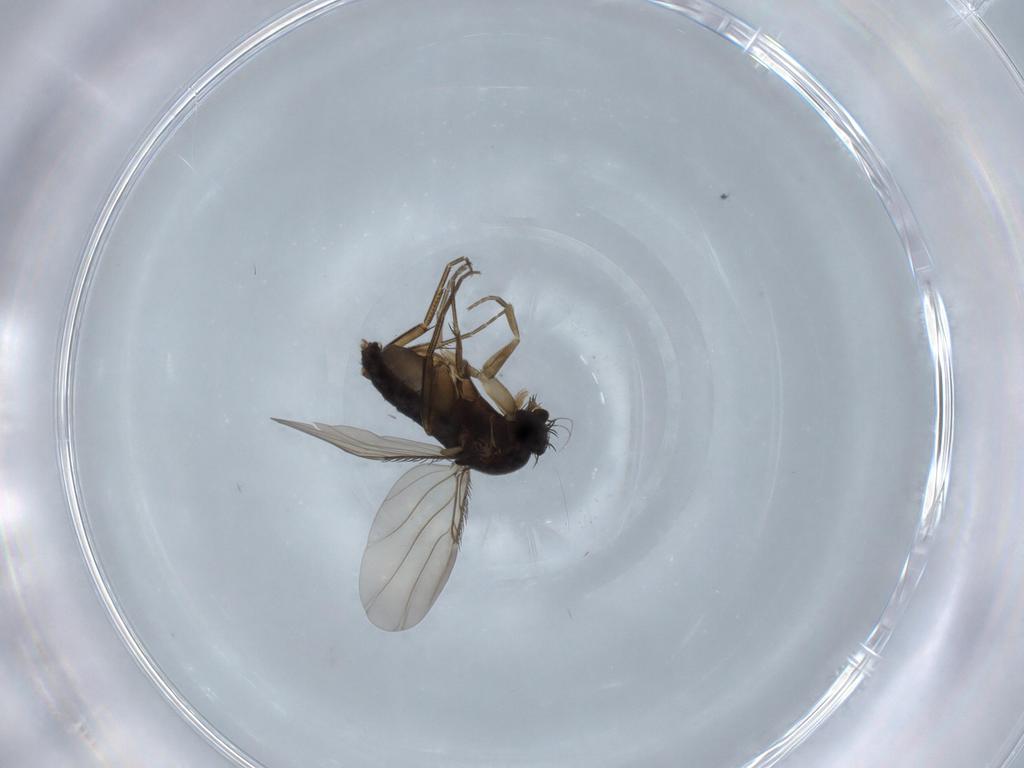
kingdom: Animalia
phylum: Arthropoda
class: Insecta
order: Diptera
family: Phoridae
